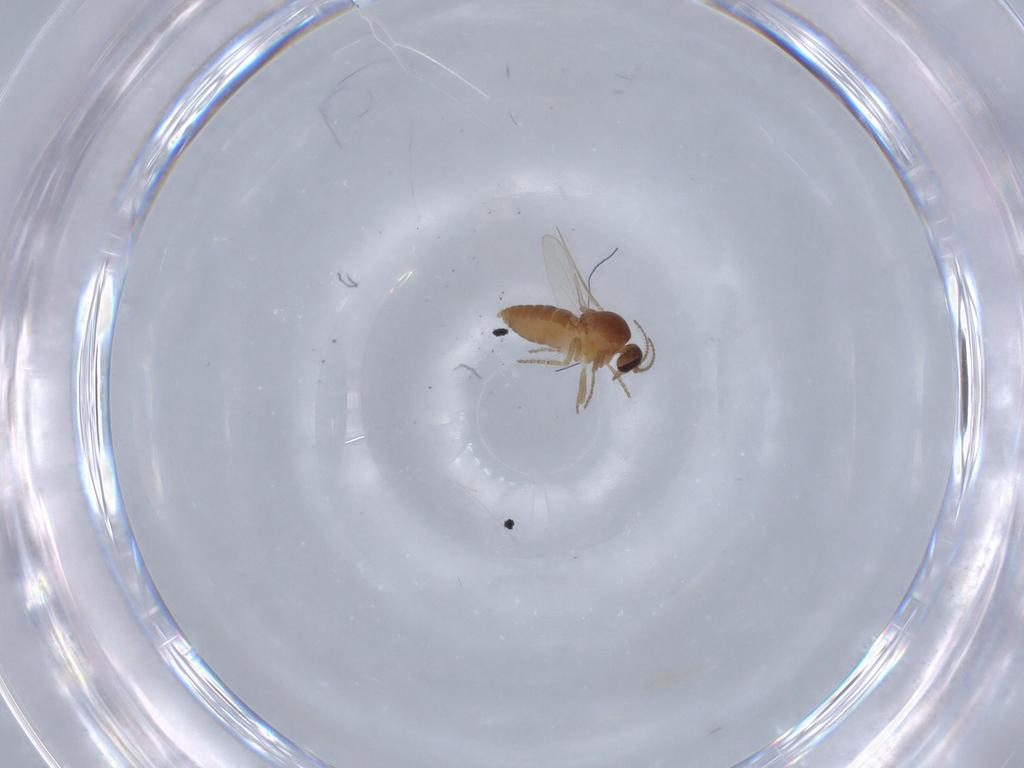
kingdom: Animalia
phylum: Arthropoda
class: Insecta
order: Diptera
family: Ceratopogonidae
